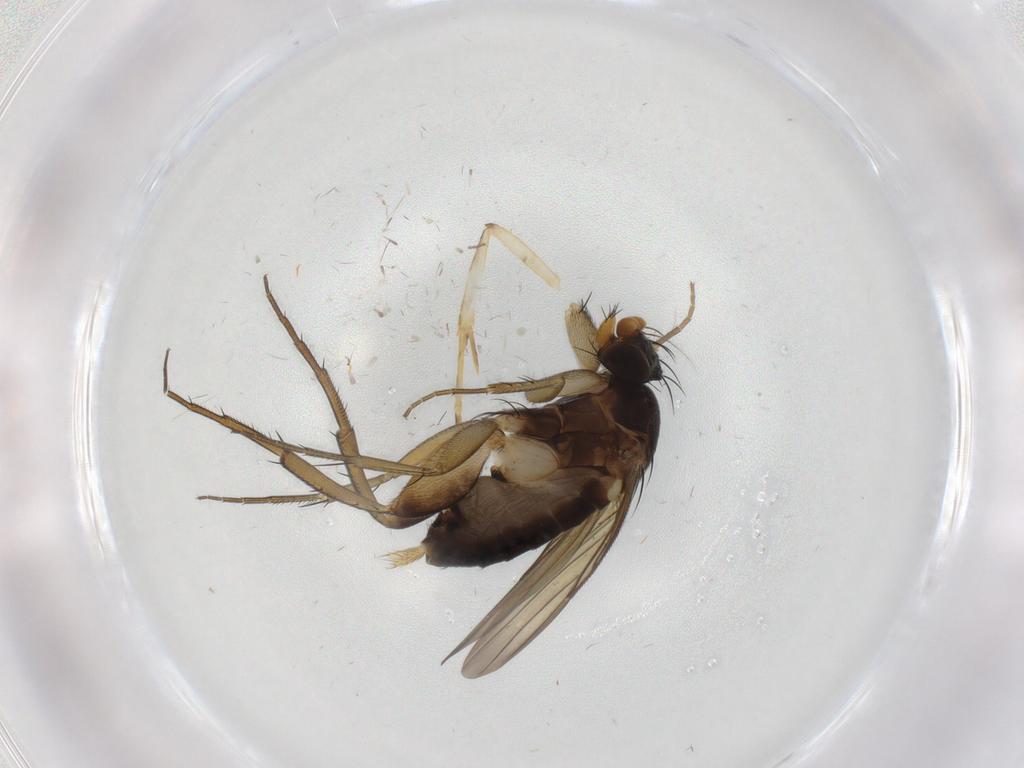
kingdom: Animalia
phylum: Arthropoda
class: Insecta
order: Diptera
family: Phoridae
